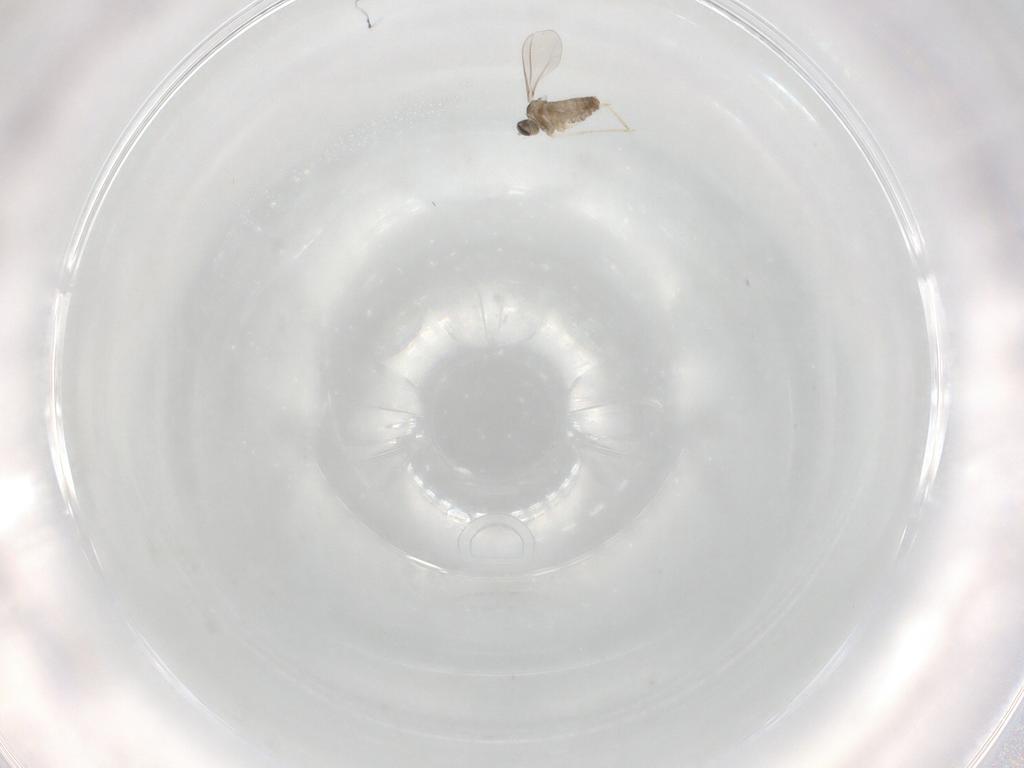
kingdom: Animalia
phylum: Arthropoda
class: Insecta
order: Diptera
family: Cecidomyiidae
